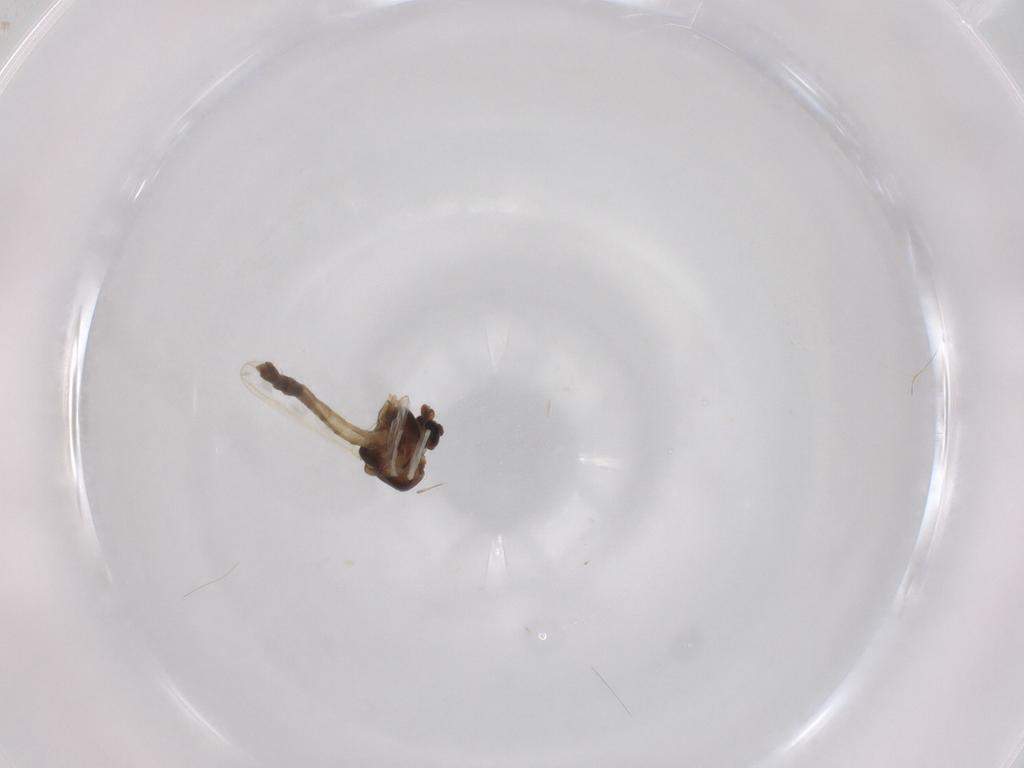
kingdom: Animalia
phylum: Arthropoda
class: Insecta
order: Diptera
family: Chironomidae
